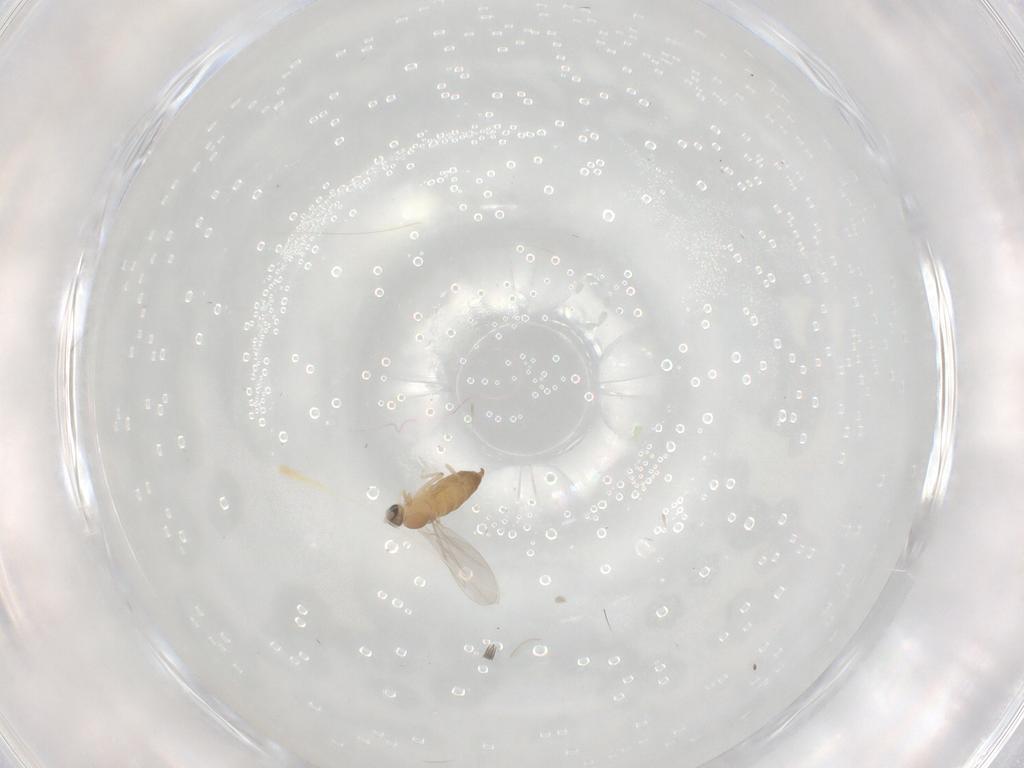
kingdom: Animalia
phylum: Arthropoda
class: Insecta
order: Diptera
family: Cecidomyiidae
